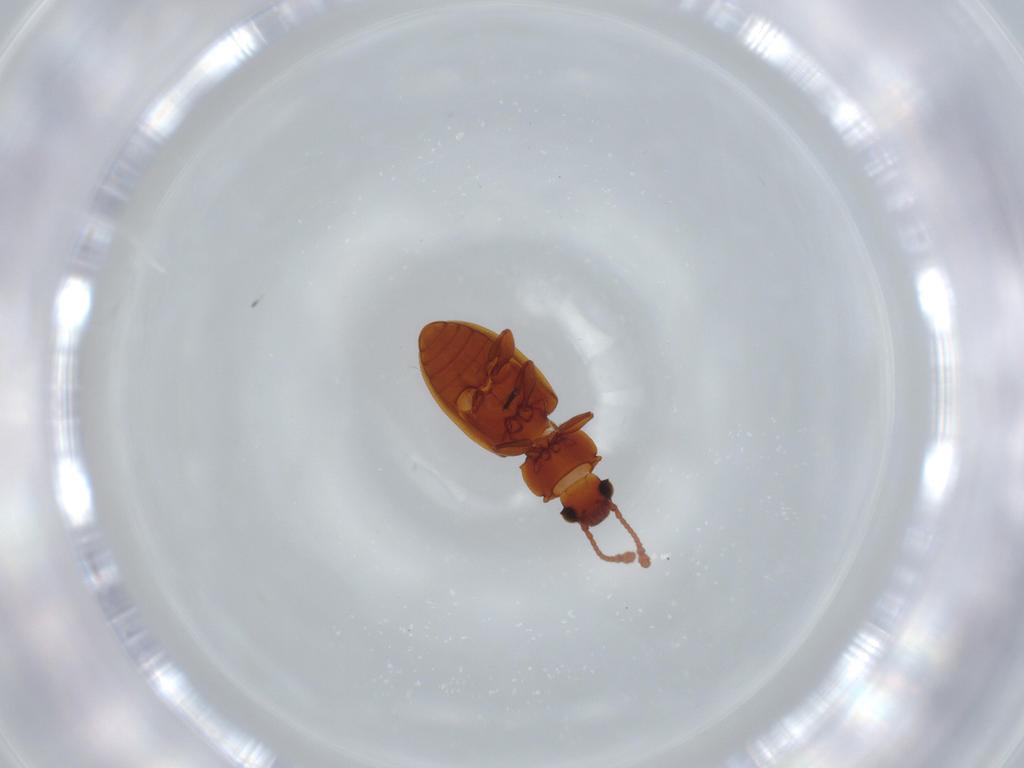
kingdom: Animalia
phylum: Arthropoda
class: Insecta
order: Coleoptera
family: Silvanidae
